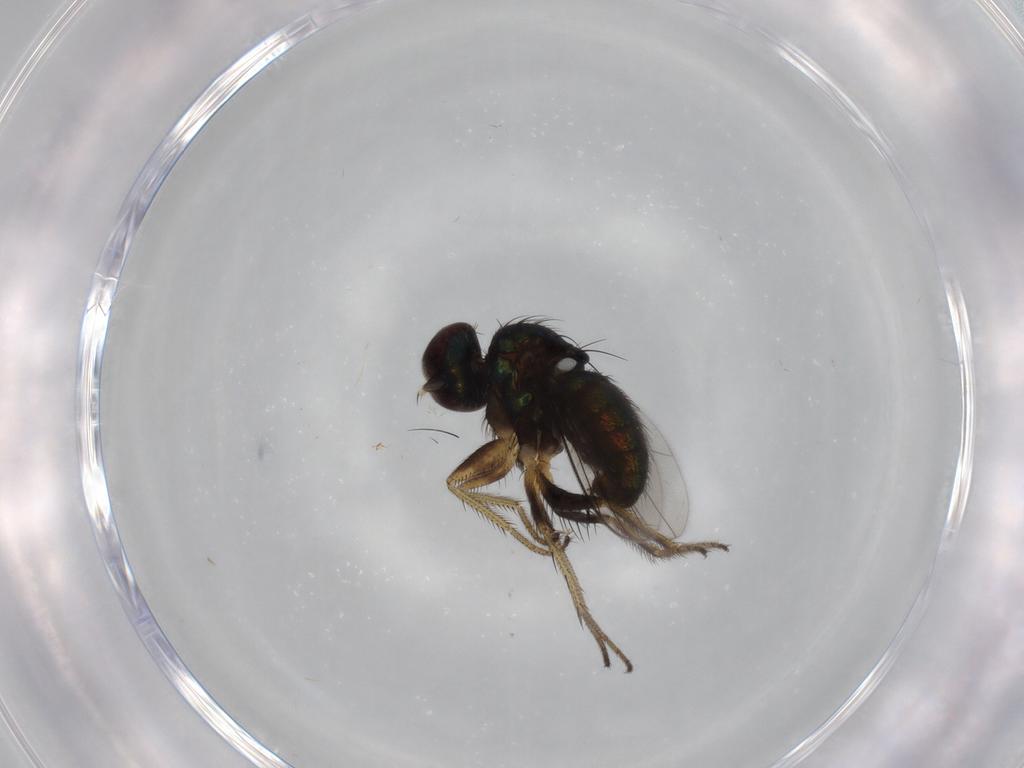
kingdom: Animalia
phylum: Arthropoda
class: Insecta
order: Diptera
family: Dolichopodidae
